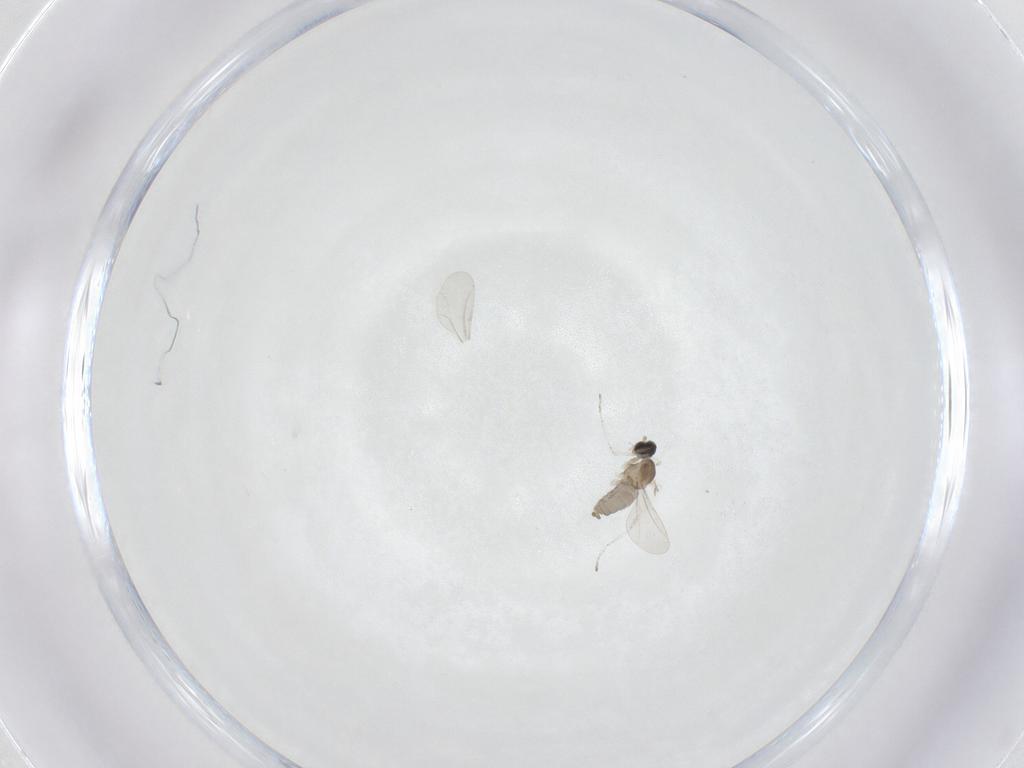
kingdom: Animalia
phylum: Arthropoda
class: Insecta
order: Diptera
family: Cecidomyiidae
